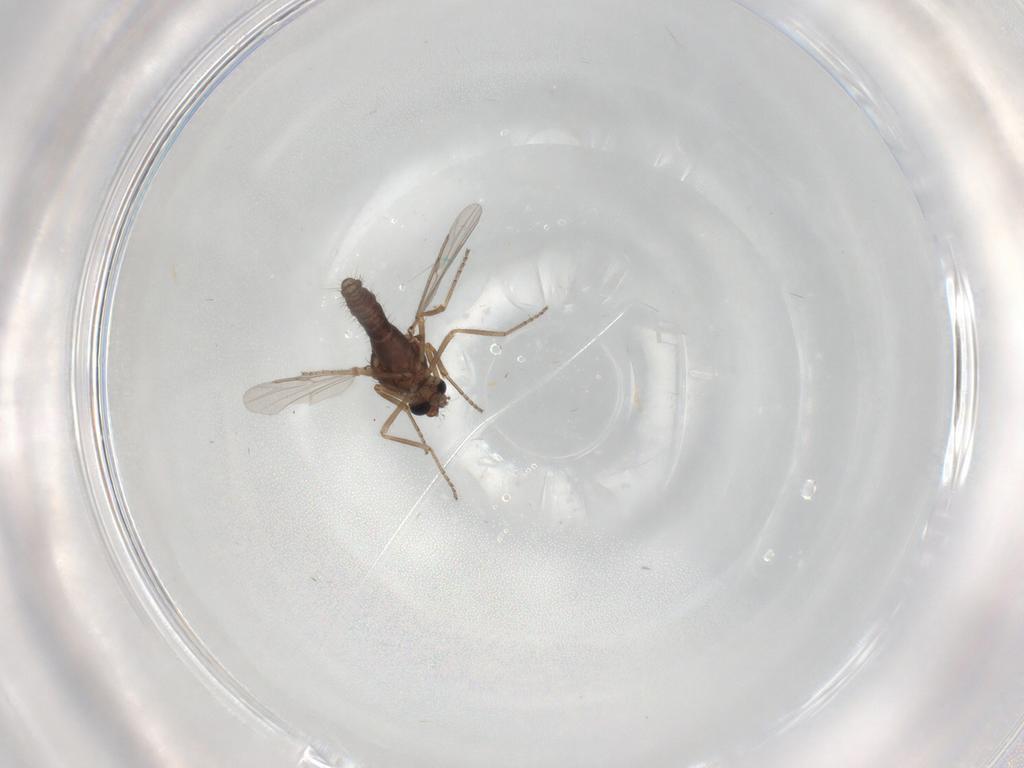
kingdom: Animalia
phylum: Arthropoda
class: Insecta
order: Diptera
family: Ceratopogonidae
